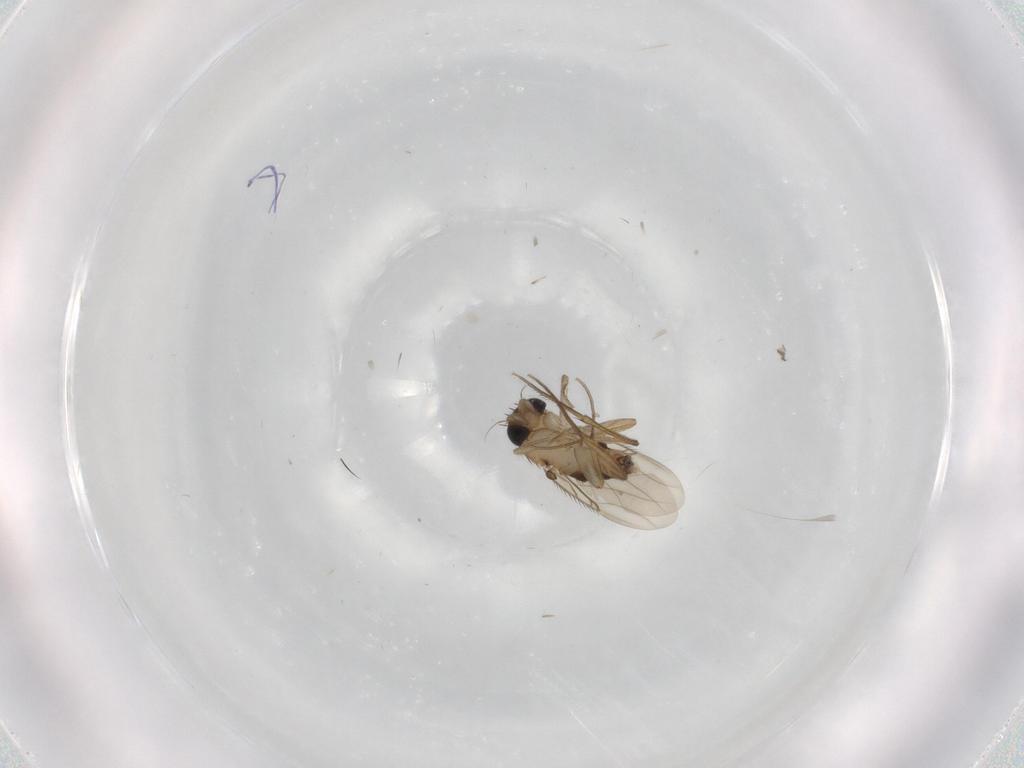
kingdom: Animalia
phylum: Arthropoda
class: Insecta
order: Diptera
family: Phoridae
